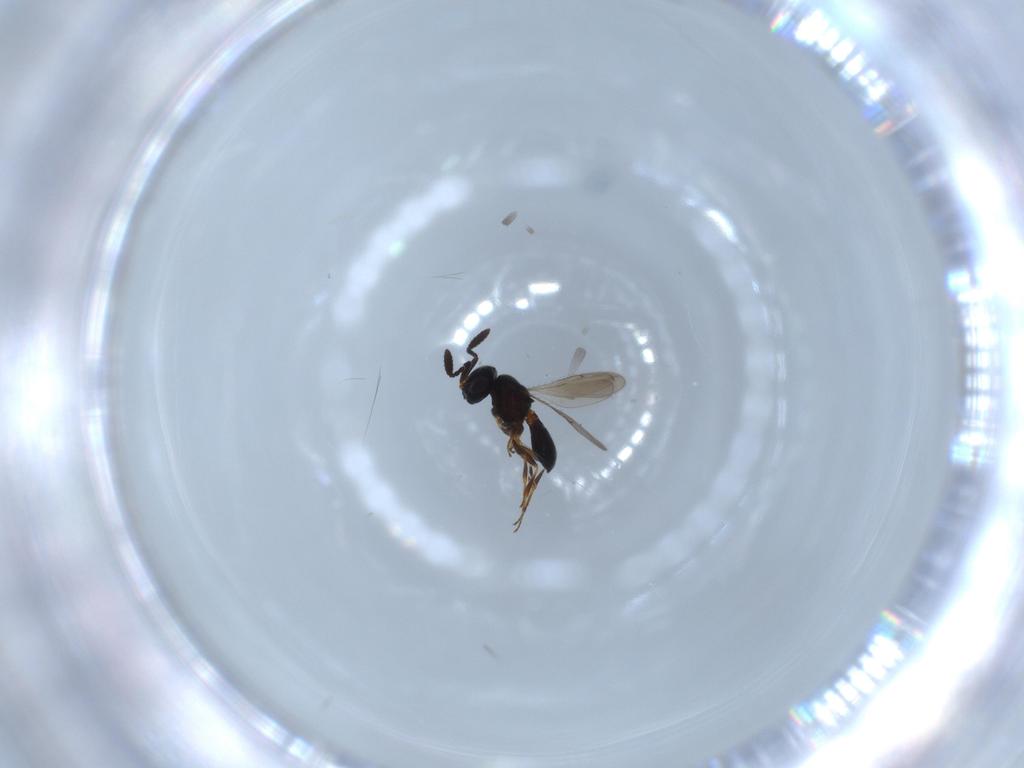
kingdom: Animalia
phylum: Arthropoda
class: Insecta
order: Hymenoptera
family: Scelionidae
